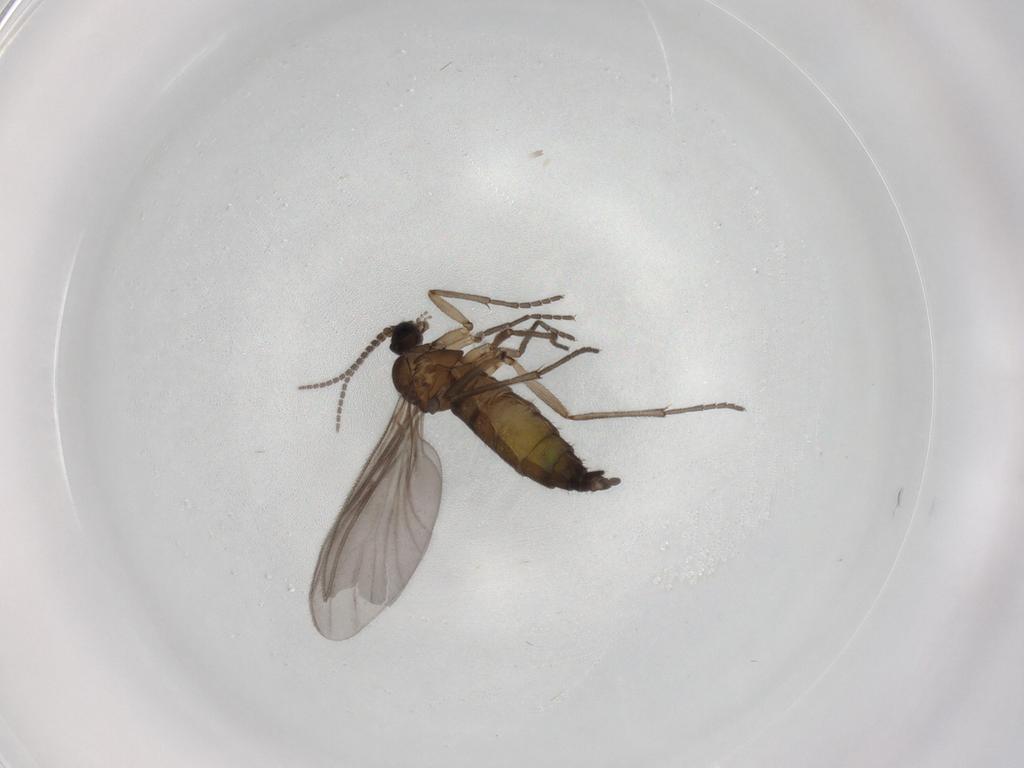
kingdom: Animalia
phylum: Arthropoda
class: Insecta
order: Diptera
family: Sciaridae
